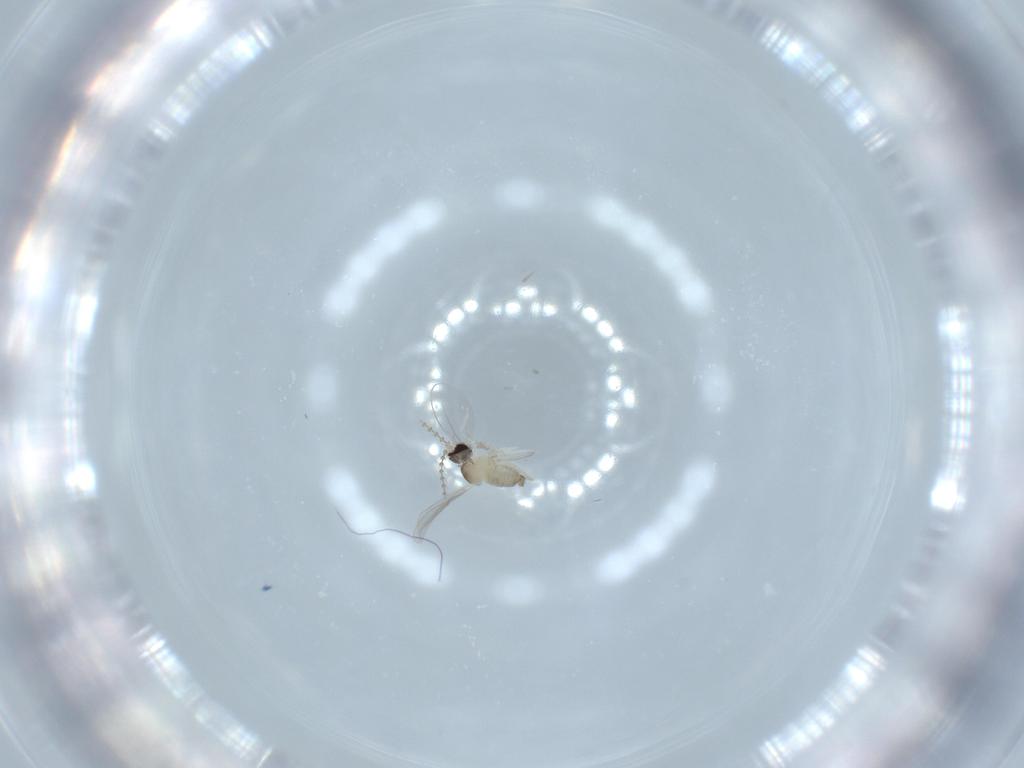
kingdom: Animalia
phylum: Arthropoda
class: Insecta
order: Diptera
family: Cecidomyiidae
